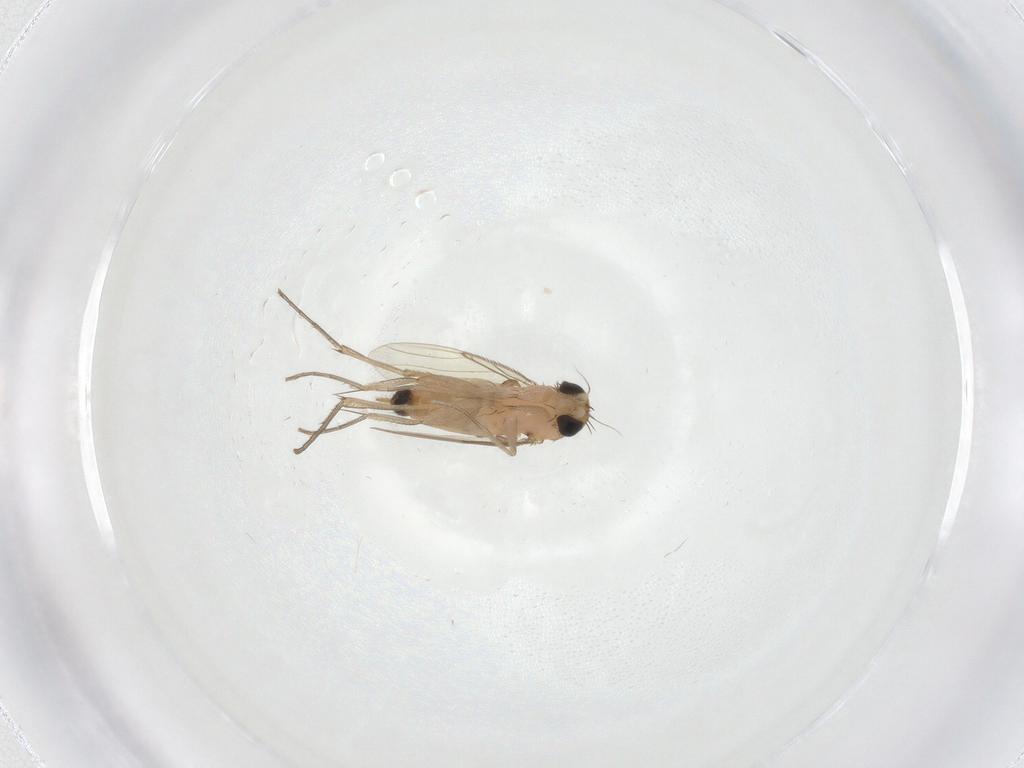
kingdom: Animalia
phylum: Arthropoda
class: Insecta
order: Diptera
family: Phoridae
